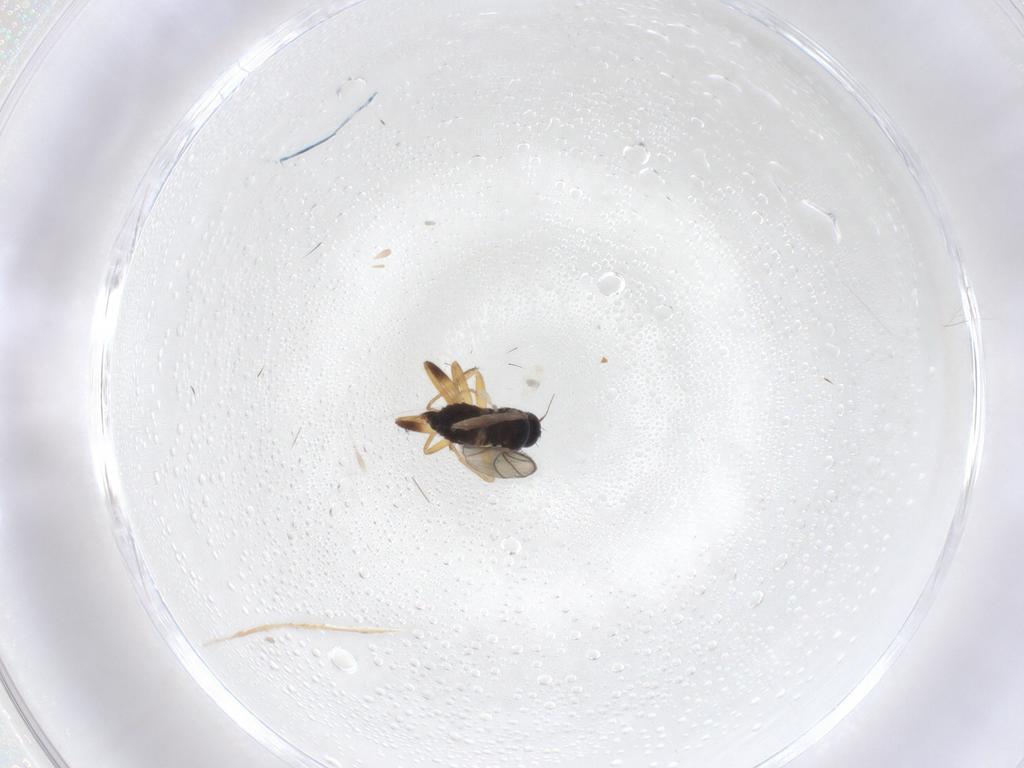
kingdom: Animalia
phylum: Arthropoda
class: Insecta
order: Diptera
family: Hybotidae
